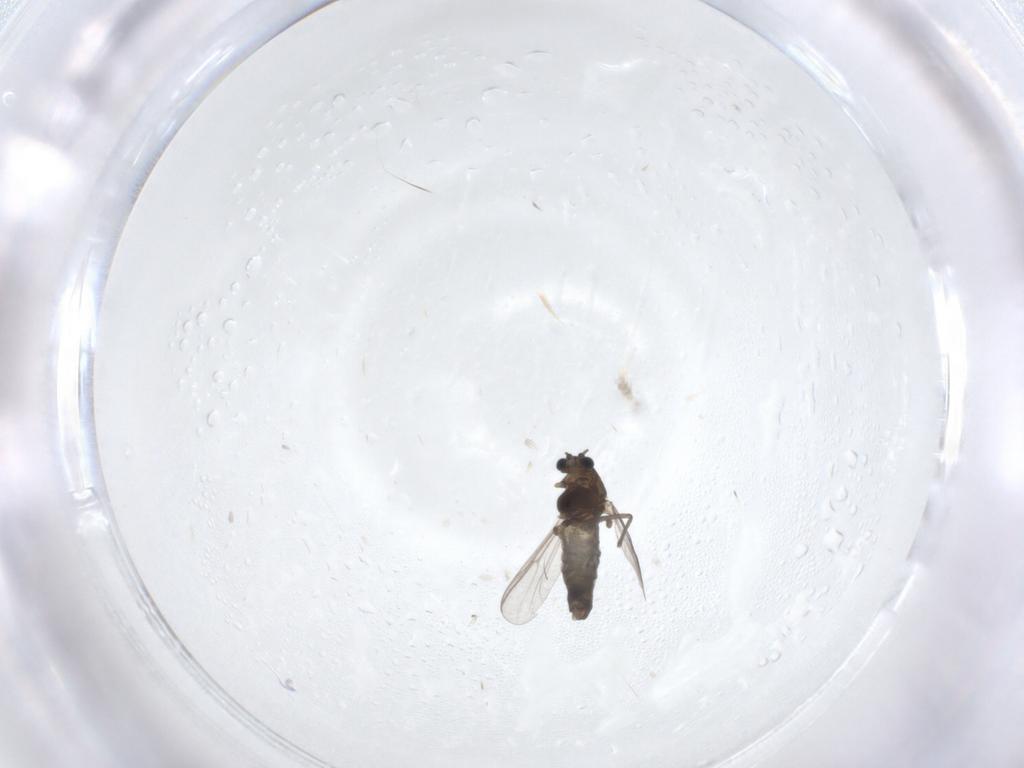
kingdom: Animalia
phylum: Arthropoda
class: Insecta
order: Diptera
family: Chironomidae
